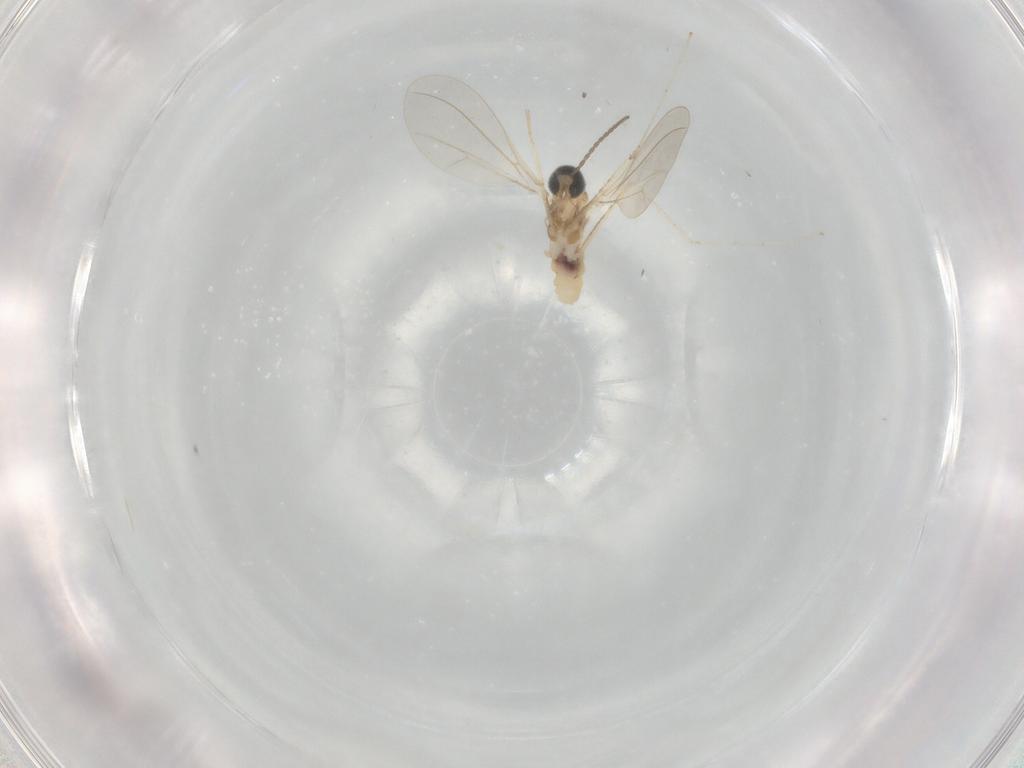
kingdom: Animalia
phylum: Arthropoda
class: Insecta
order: Diptera
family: Cecidomyiidae
